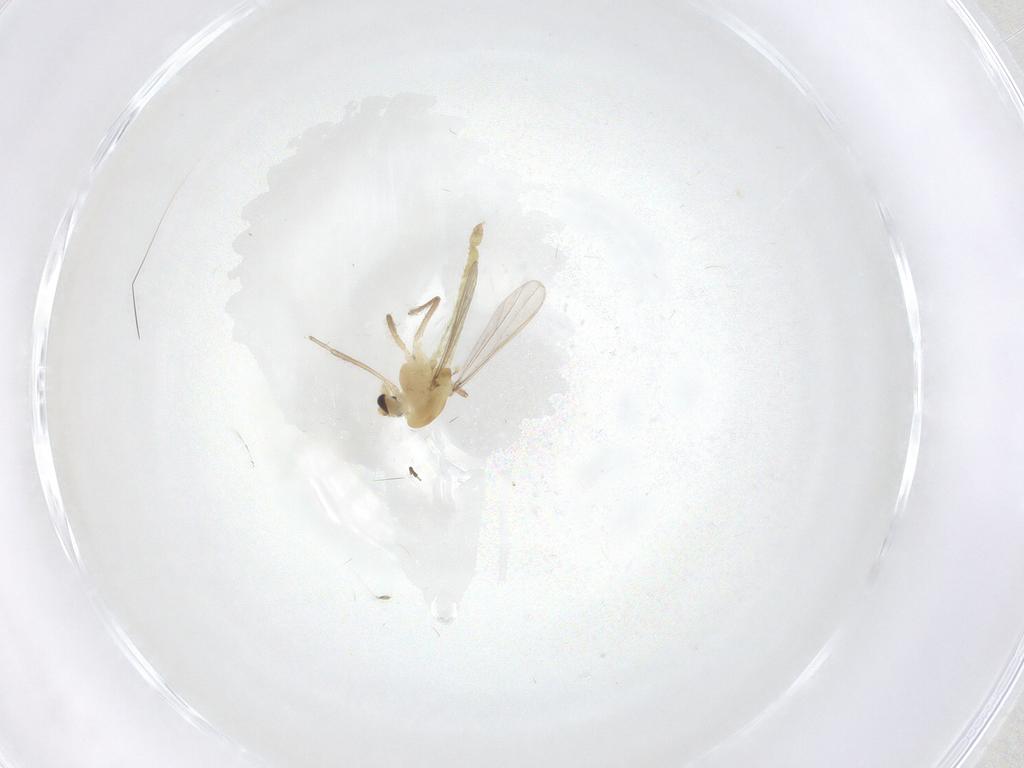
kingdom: Animalia
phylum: Arthropoda
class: Insecta
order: Diptera
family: Chironomidae
